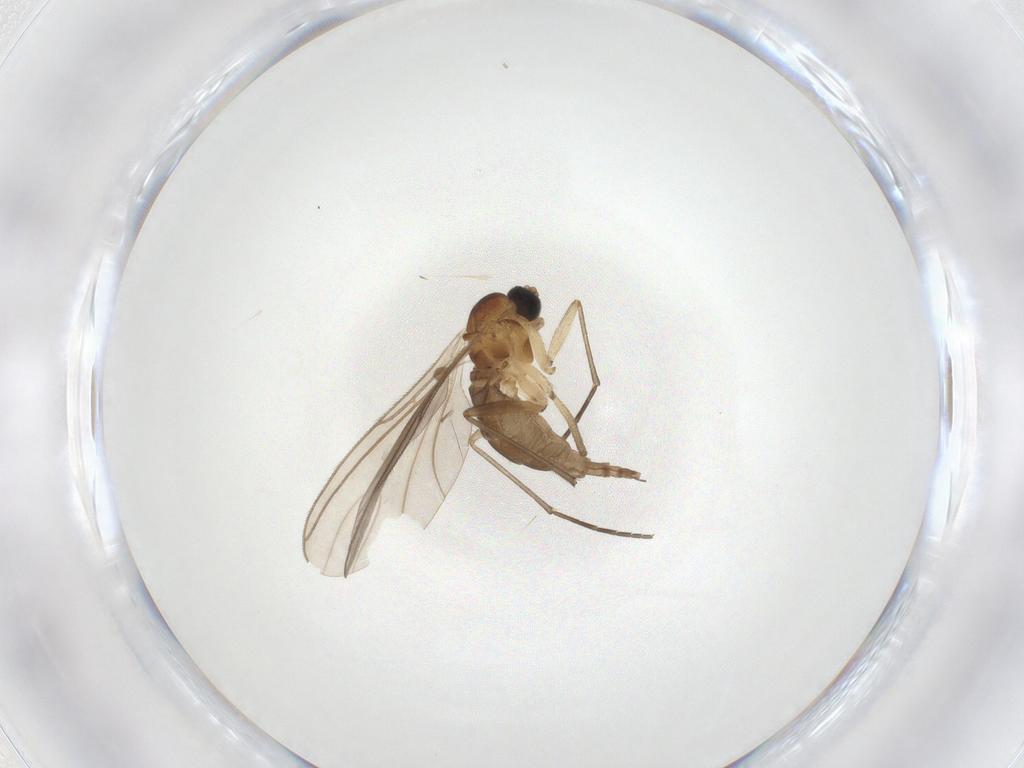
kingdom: Animalia
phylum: Arthropoda
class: Insecta
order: Diptera
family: Sciaridae
